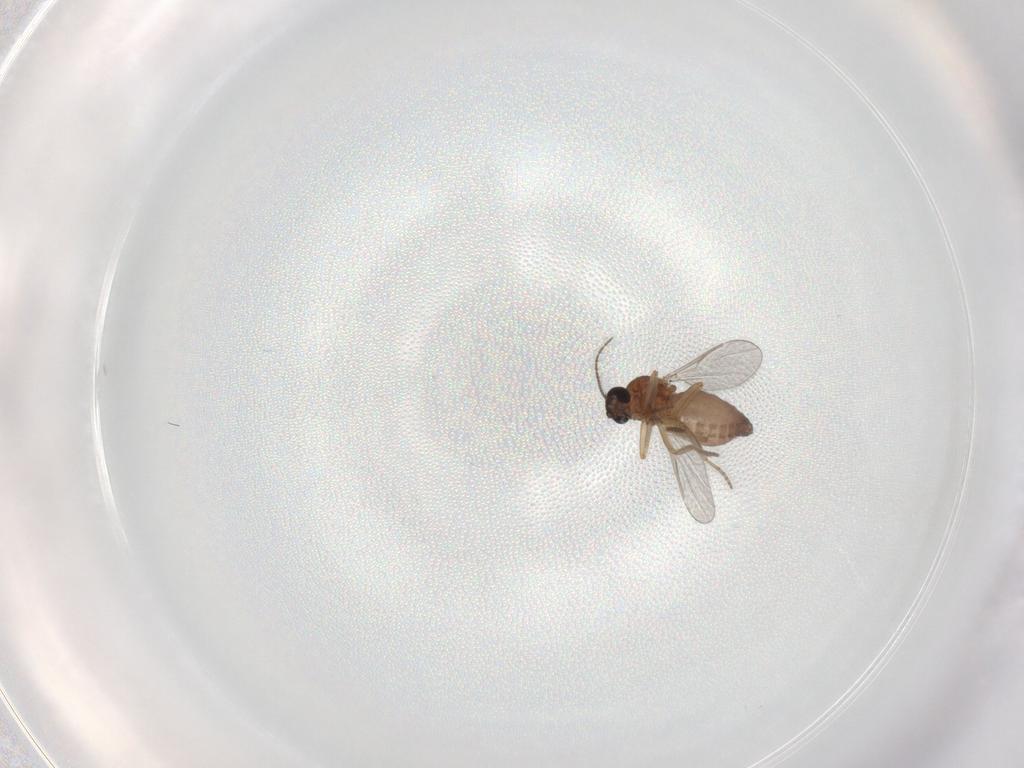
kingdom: Animalia
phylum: Arthropoda
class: Insecta
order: Diptera
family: Ceratopogonidae
